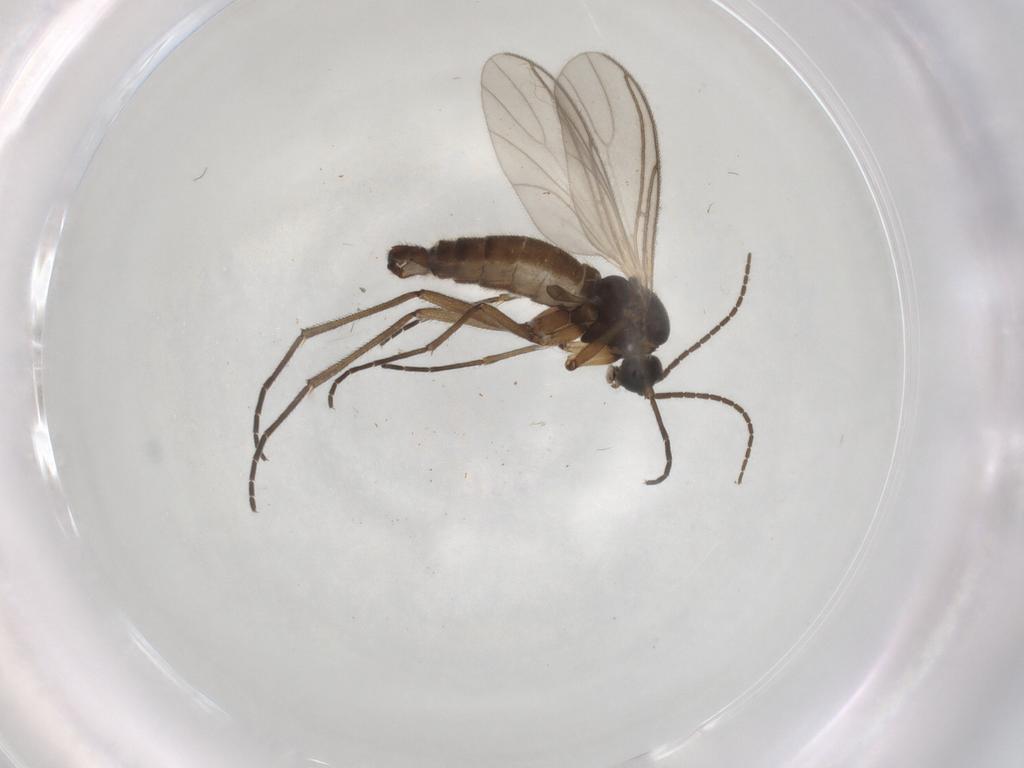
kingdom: Animalia
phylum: Arthropoda
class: Insecta
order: Diptera
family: Sciaridae
